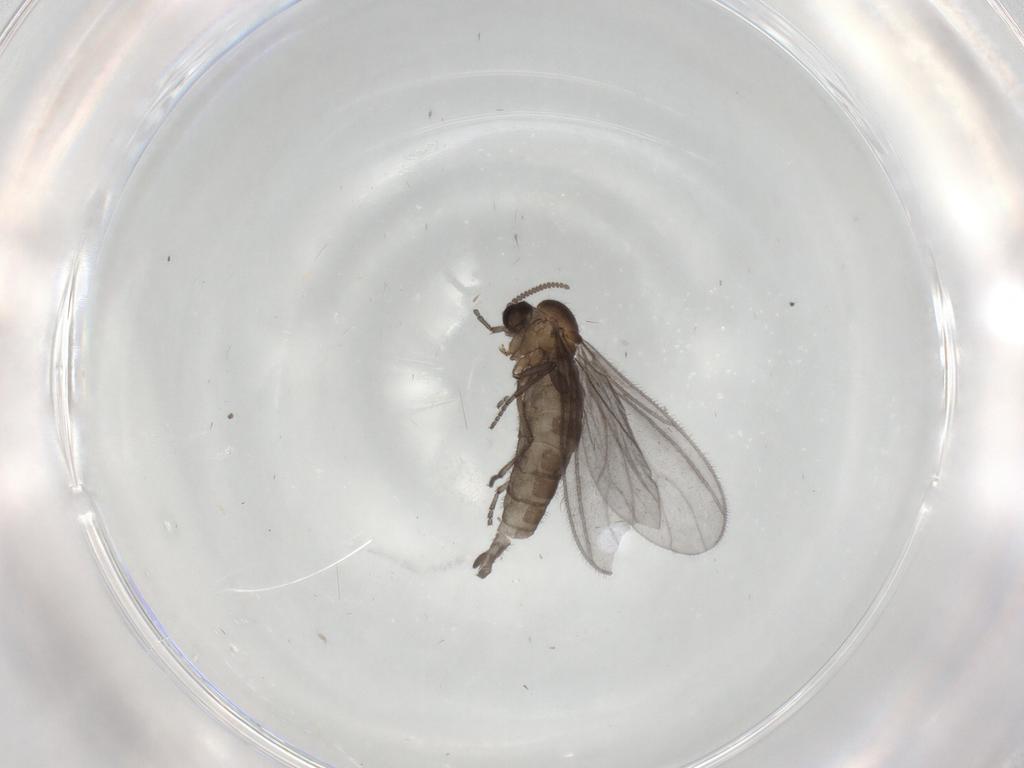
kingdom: Animalia
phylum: Arthropoda
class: Insecta
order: Diptera
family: Sciaridae
